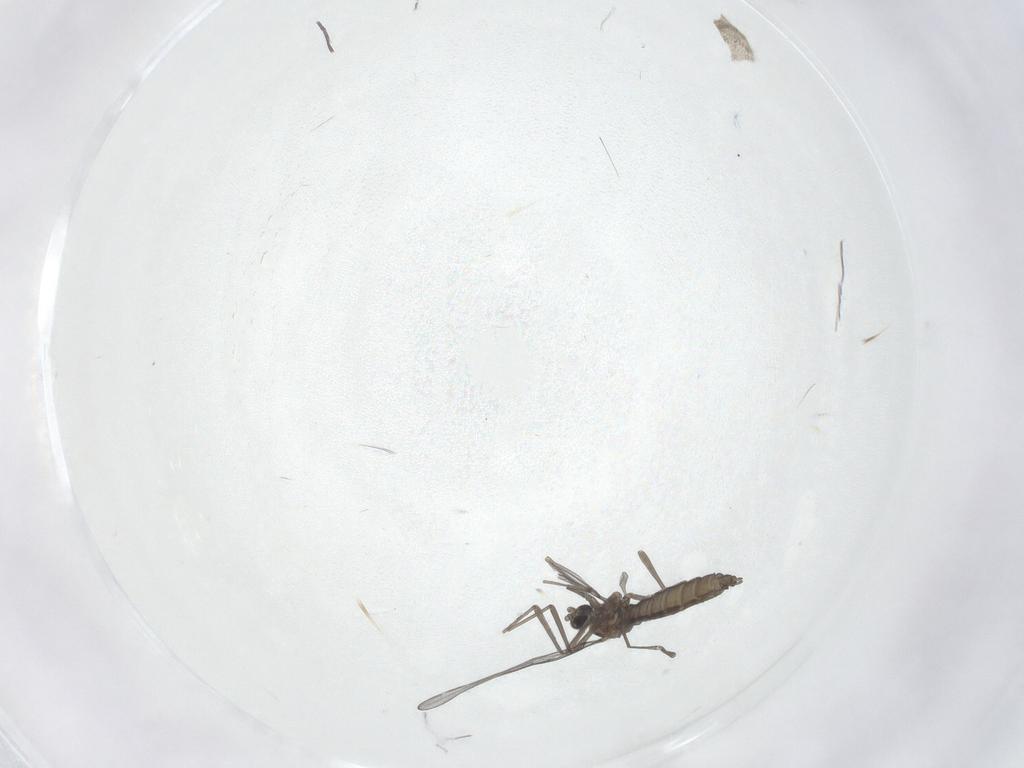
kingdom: Animalia
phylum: Arthropoda
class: Insecta
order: Diptera
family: Cecidomyiidae
